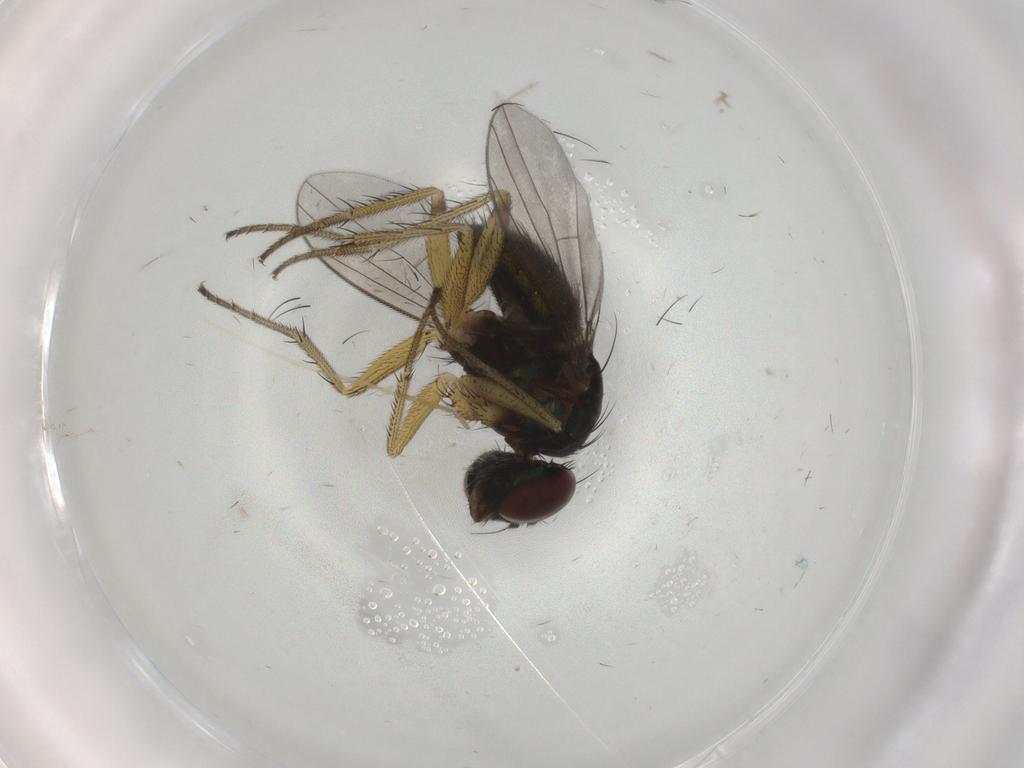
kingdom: Animalia
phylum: Arthropoda
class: Insecta
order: Diptera
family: Dolichopodidae
